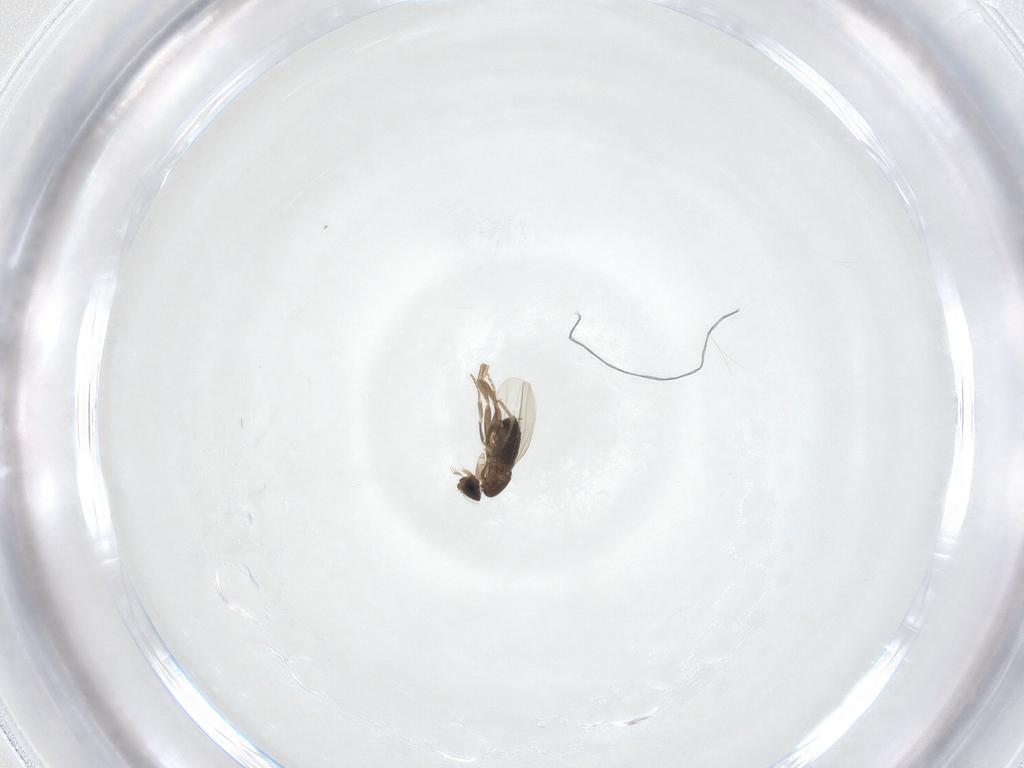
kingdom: Animalia
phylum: Arthropoda
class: Insecta
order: Diptera
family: Phoridae
